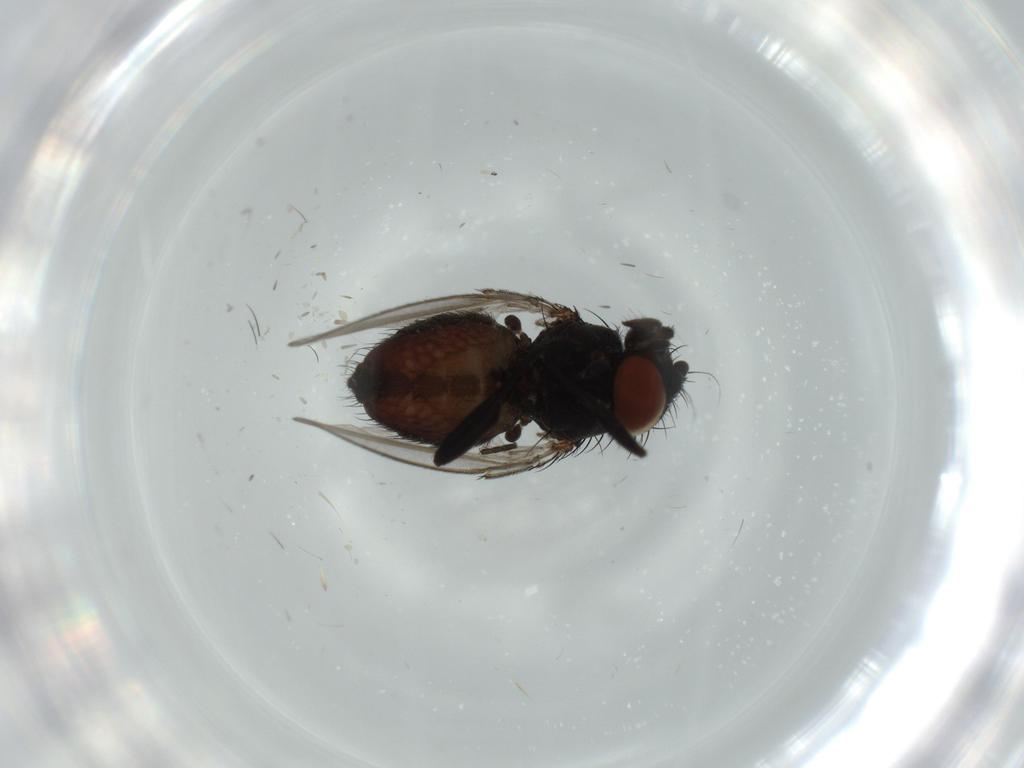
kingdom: Animalia
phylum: Arthropoda
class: Insecta
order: Diptera
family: Milichiidae
